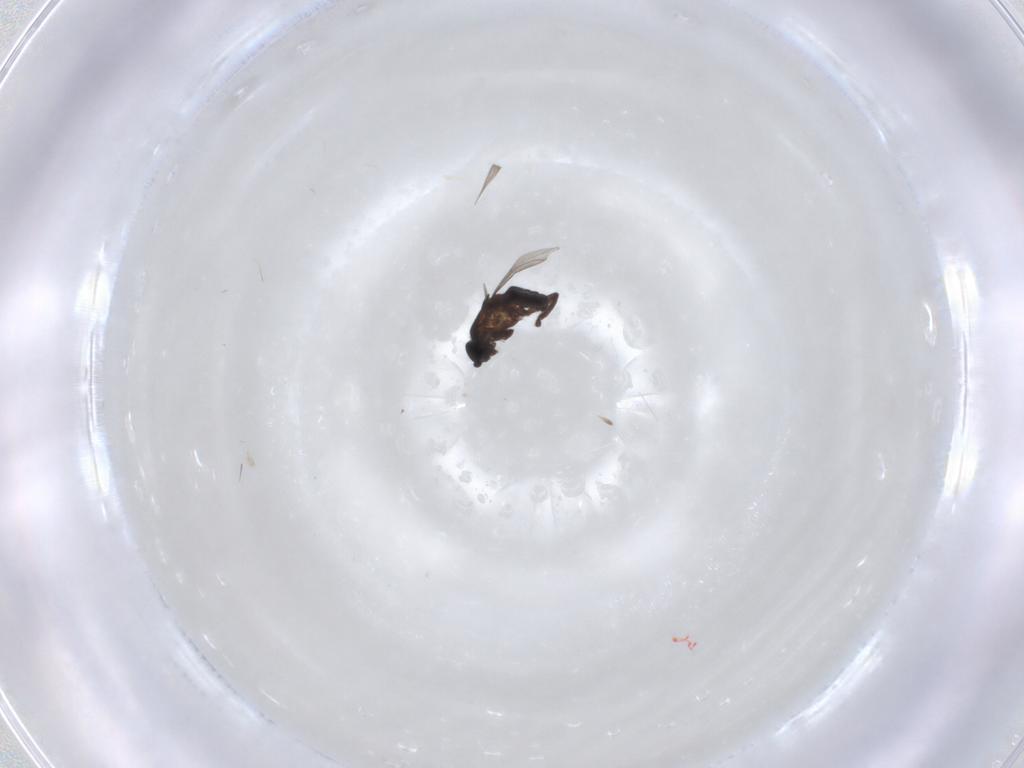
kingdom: Animalia
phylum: Arthropoda
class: Insecta
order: Diptera
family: Sphaeroceridae
